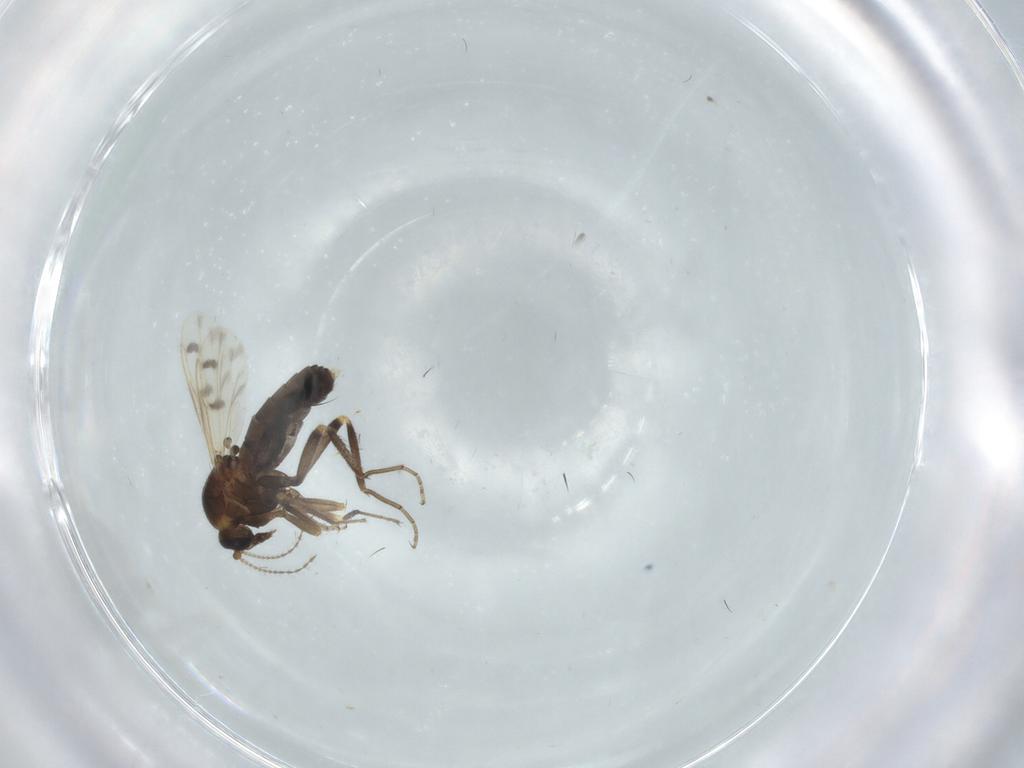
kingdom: Animalia
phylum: Arthropoda
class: Insecta
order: Diptera
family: Ceratopogonidae
